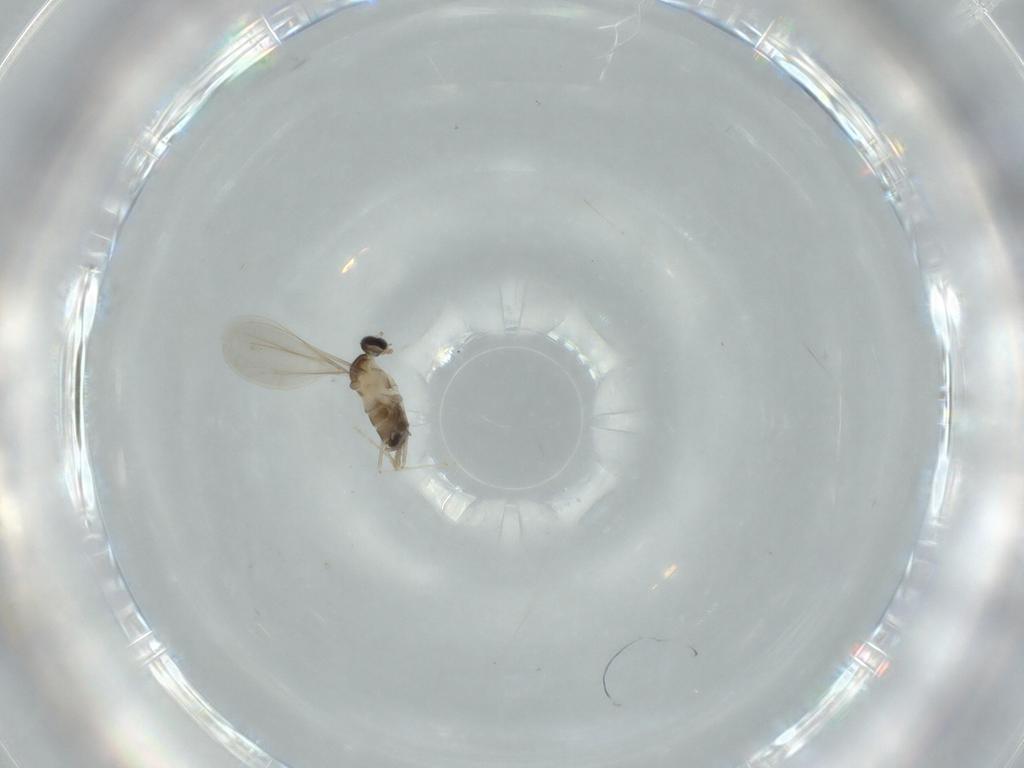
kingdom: Animalia
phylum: Arthropoda
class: Insecta
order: Diptera
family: Cecidomyiidae
